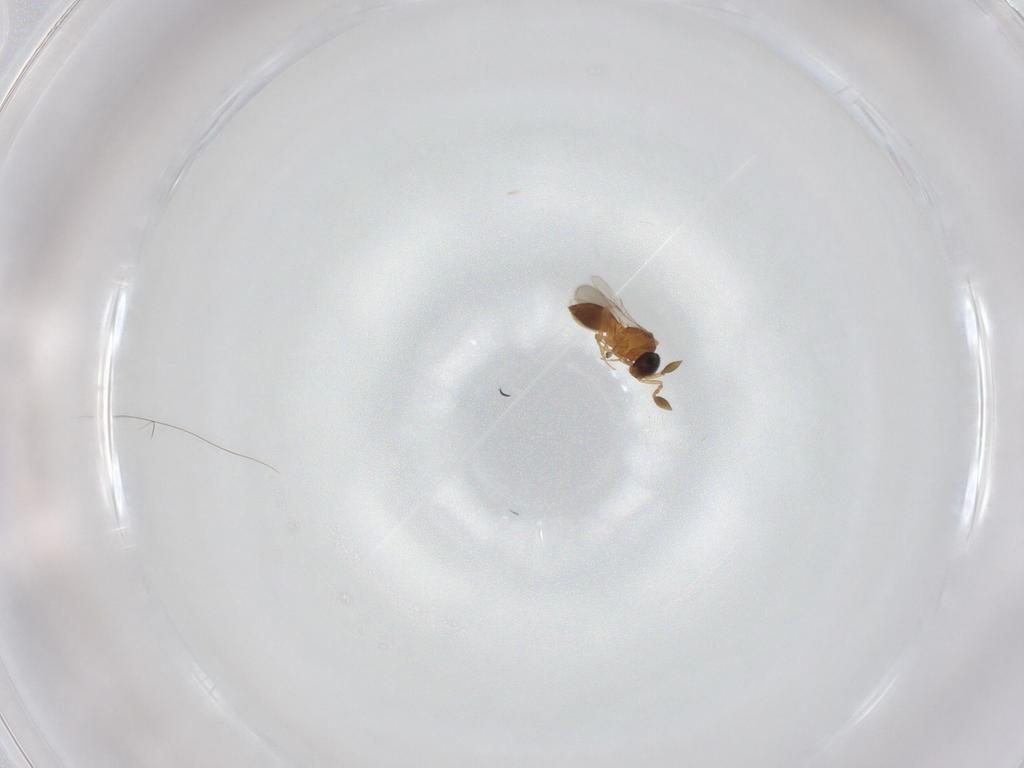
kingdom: Animalia
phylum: Arthropoda
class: Insecta
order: Hymenoptera
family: Scelionidae
